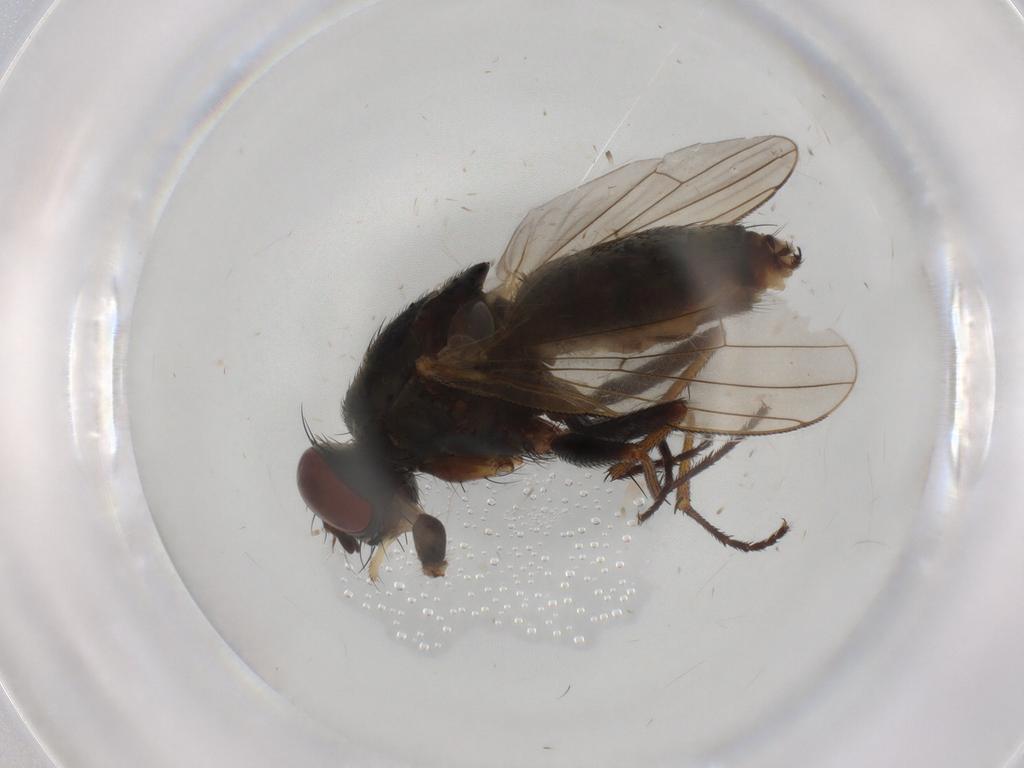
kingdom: Animalia
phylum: Arthropoda
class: Insecta
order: Diptera
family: Muscidae
